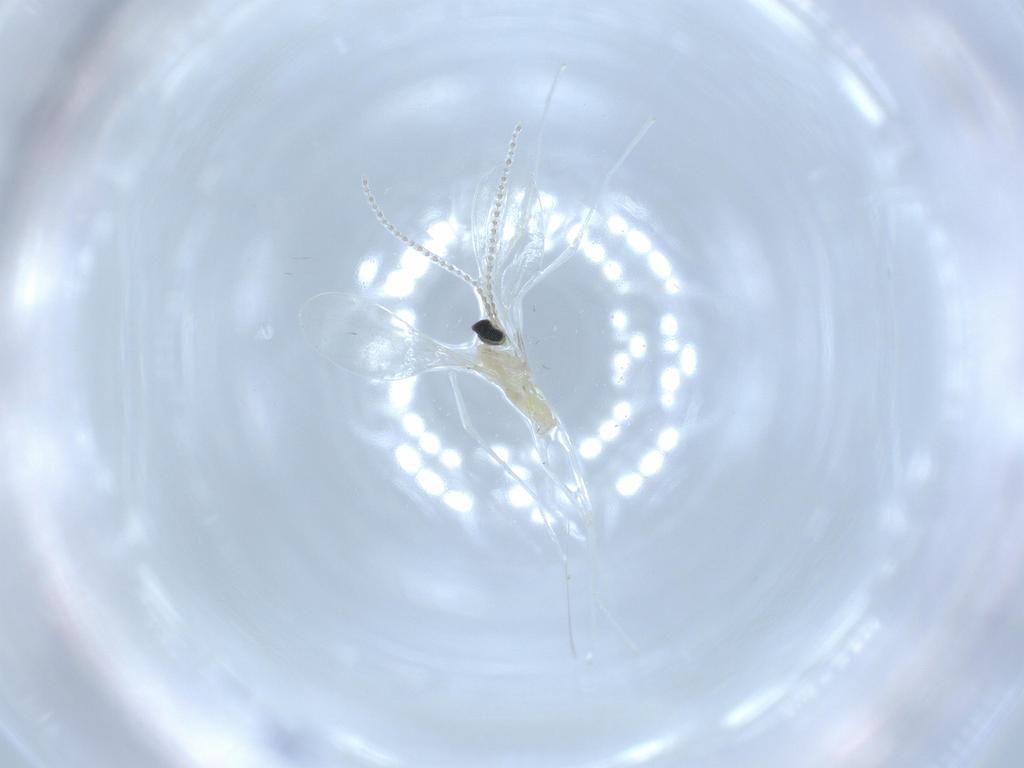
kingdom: Animalia
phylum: Arthropoda
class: Insecta
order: Diptera
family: Cecidomyiidae
